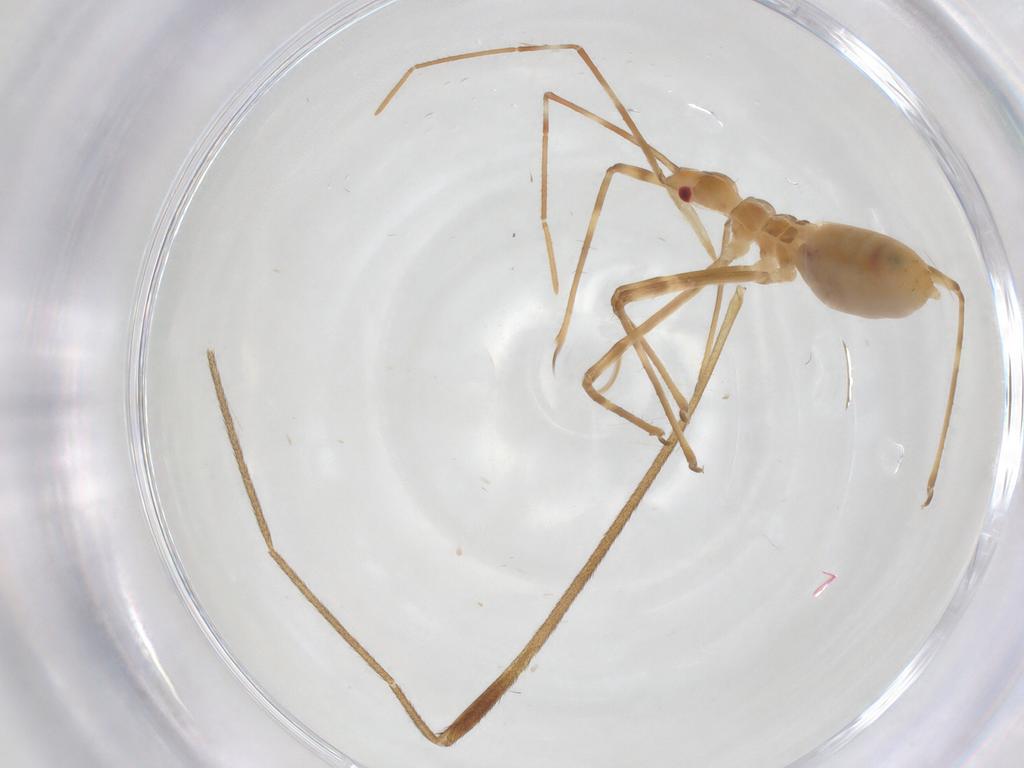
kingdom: Animalia
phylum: Arthropoda
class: Insecta
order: Hemiptera
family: Reduviidae
